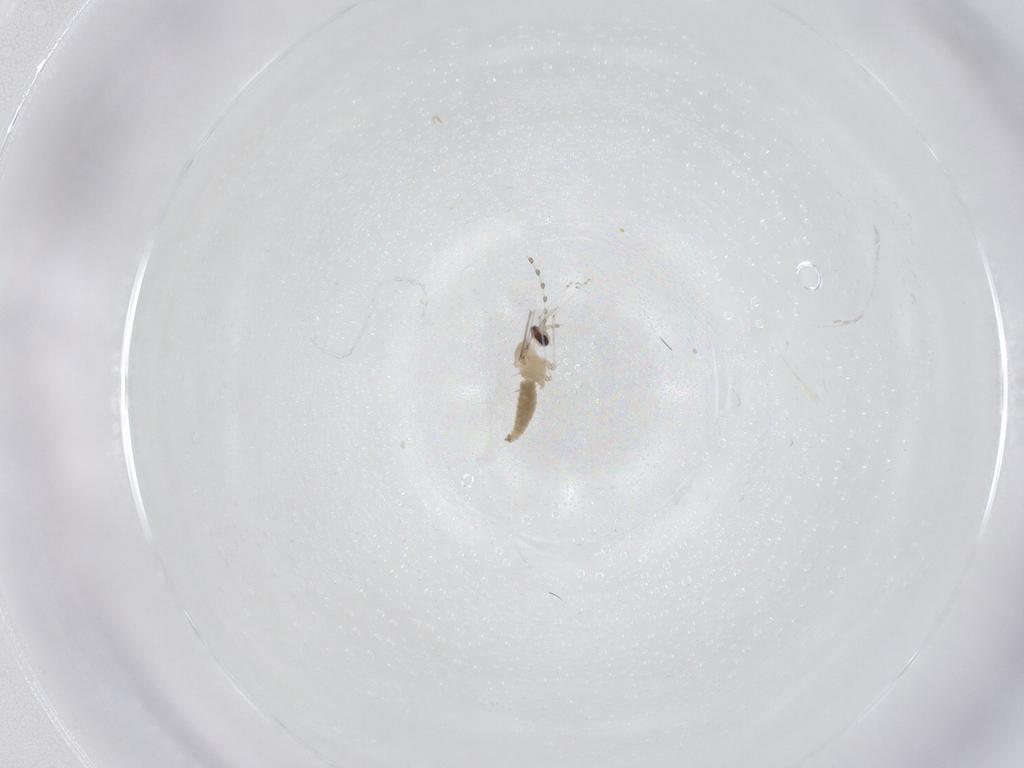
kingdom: Animalia
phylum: Arthropoda
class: Insecta
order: Diptera
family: Cecidomyiidae
